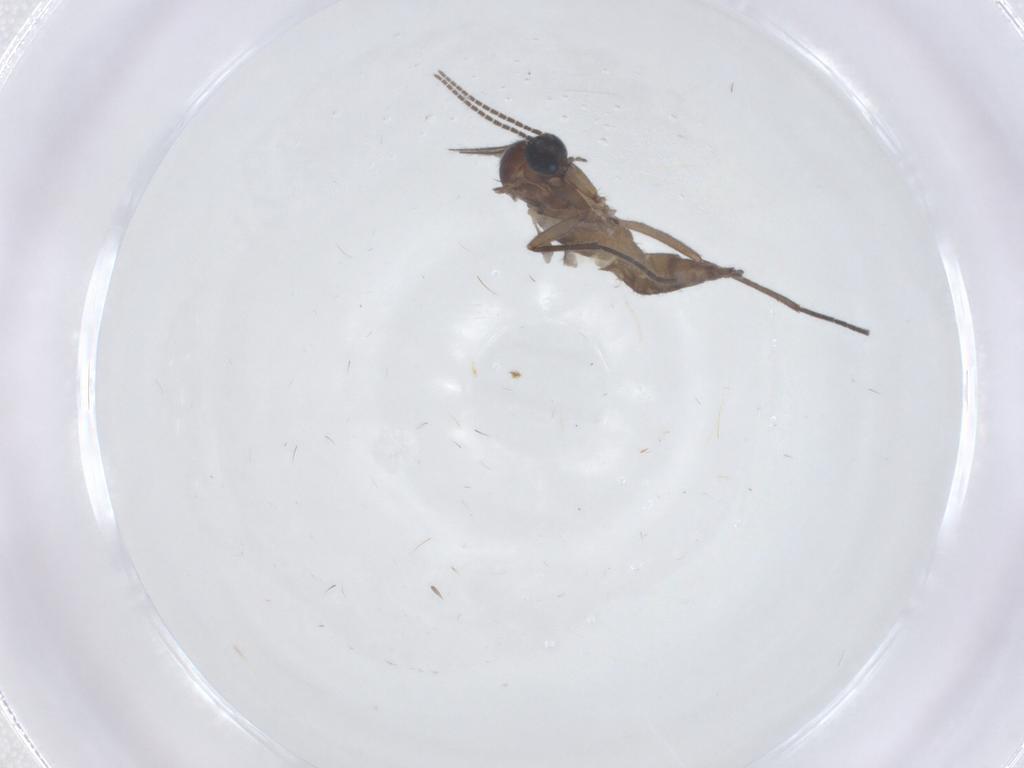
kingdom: Animalia
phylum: Arthropoda
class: Insecta
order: Diptera
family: Sciaridae
